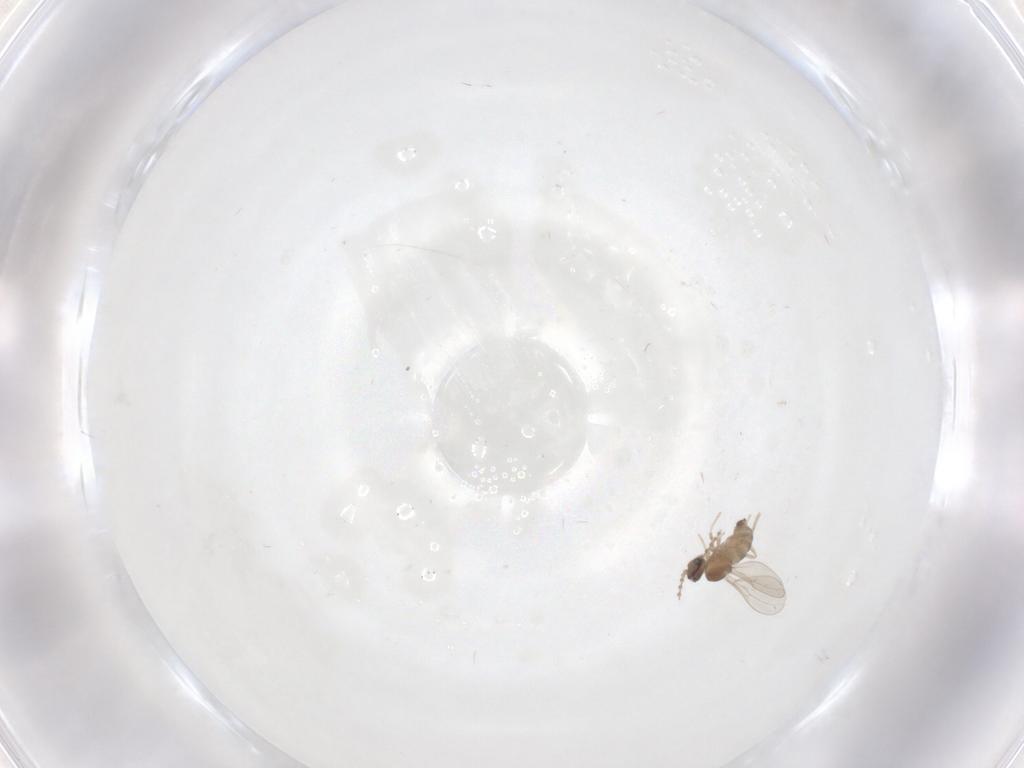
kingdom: Animalia
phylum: Arthropoda
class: Insecta
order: Diptera
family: Cecidomyiidae
